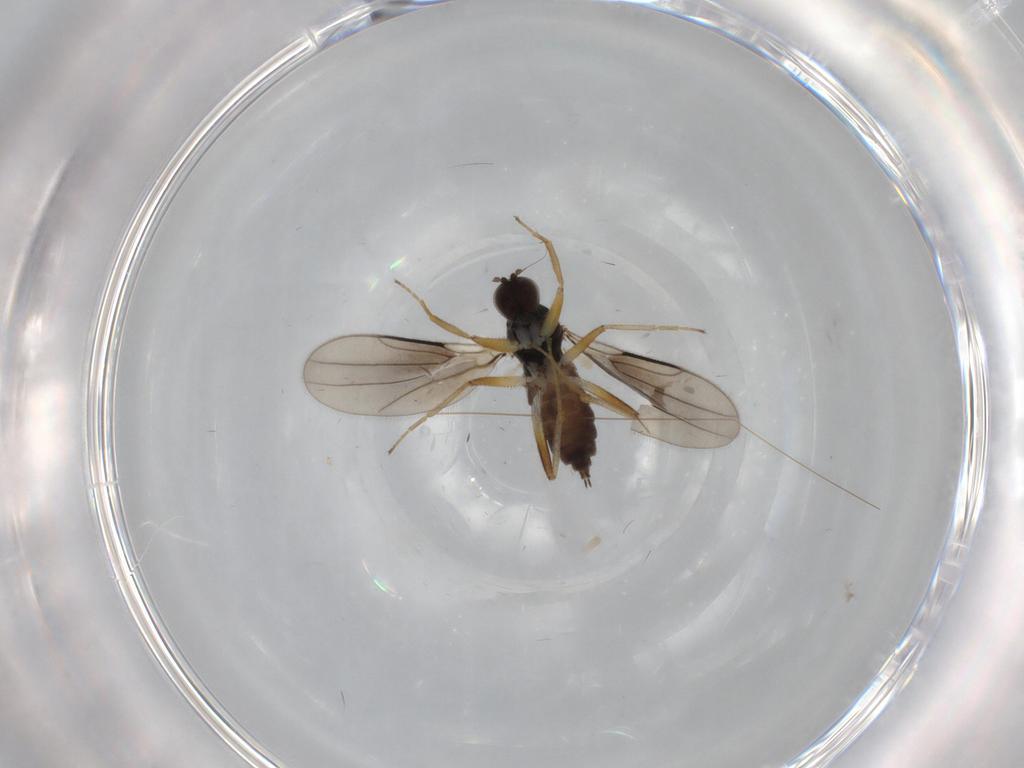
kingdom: Animalia
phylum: Arthropoda
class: Insecta
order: Diptera
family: Hybotidae
